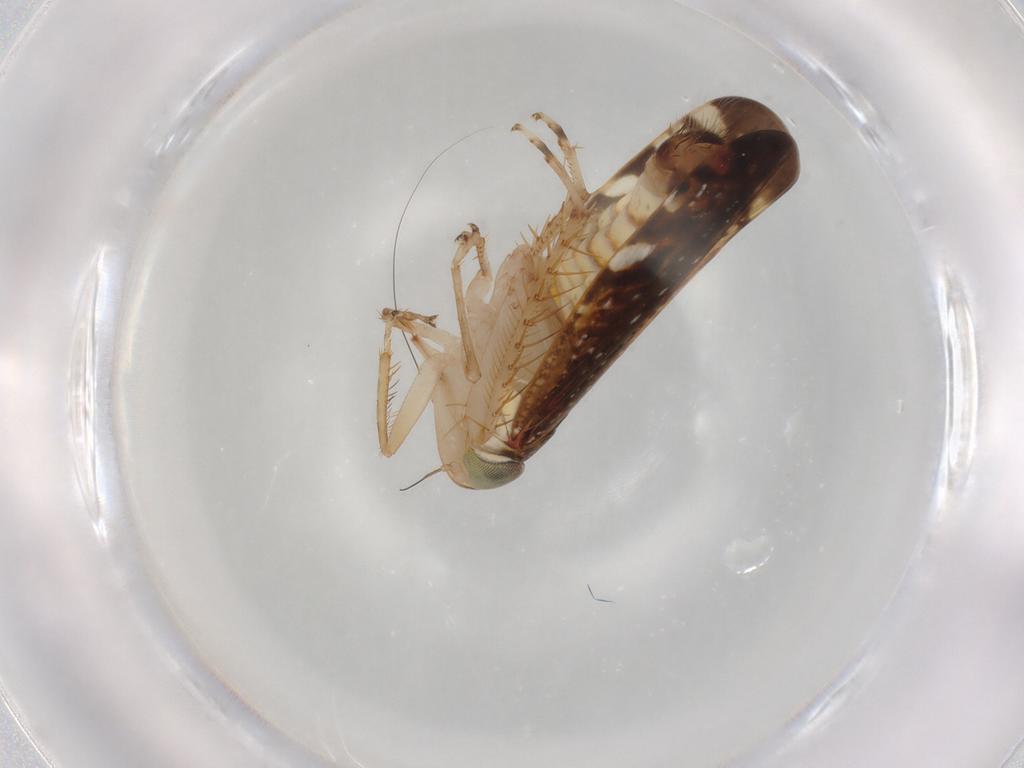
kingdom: Animalia
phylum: Arthropoda
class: Insecta
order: Hemiptera
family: Cicadellidae
